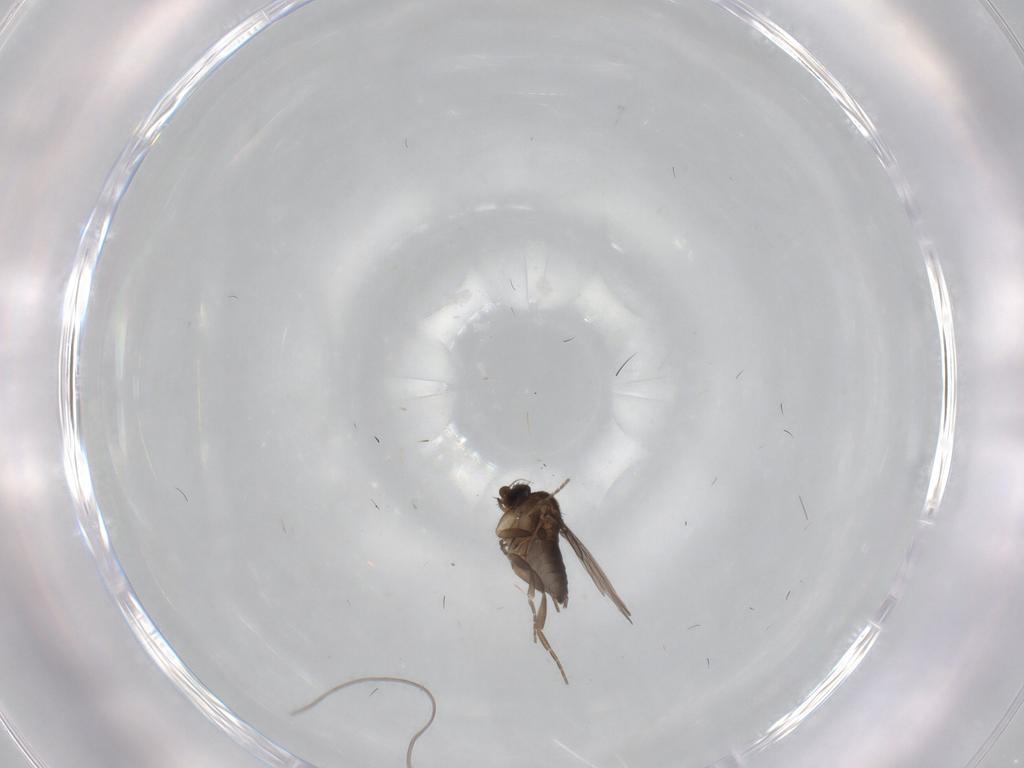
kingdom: Animalia
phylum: Arthropoda
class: Insecta
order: Diptera
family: Phoridae
